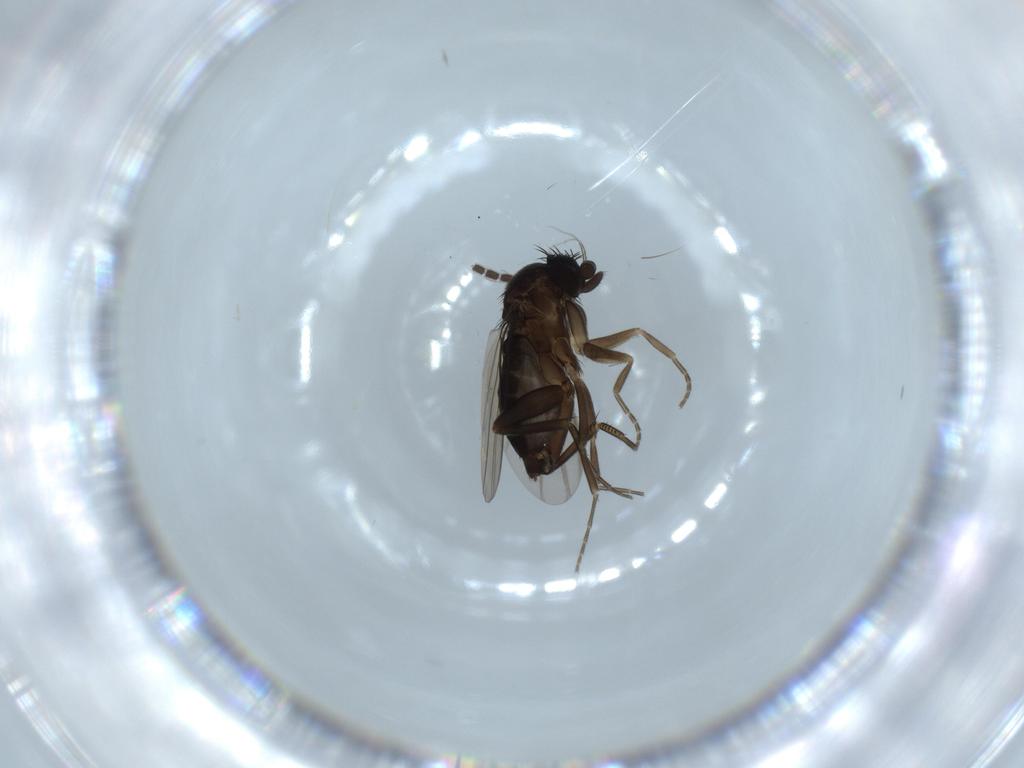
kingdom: Animalia
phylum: Arthropoda
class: Insecta
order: Diptera
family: Phoridae
